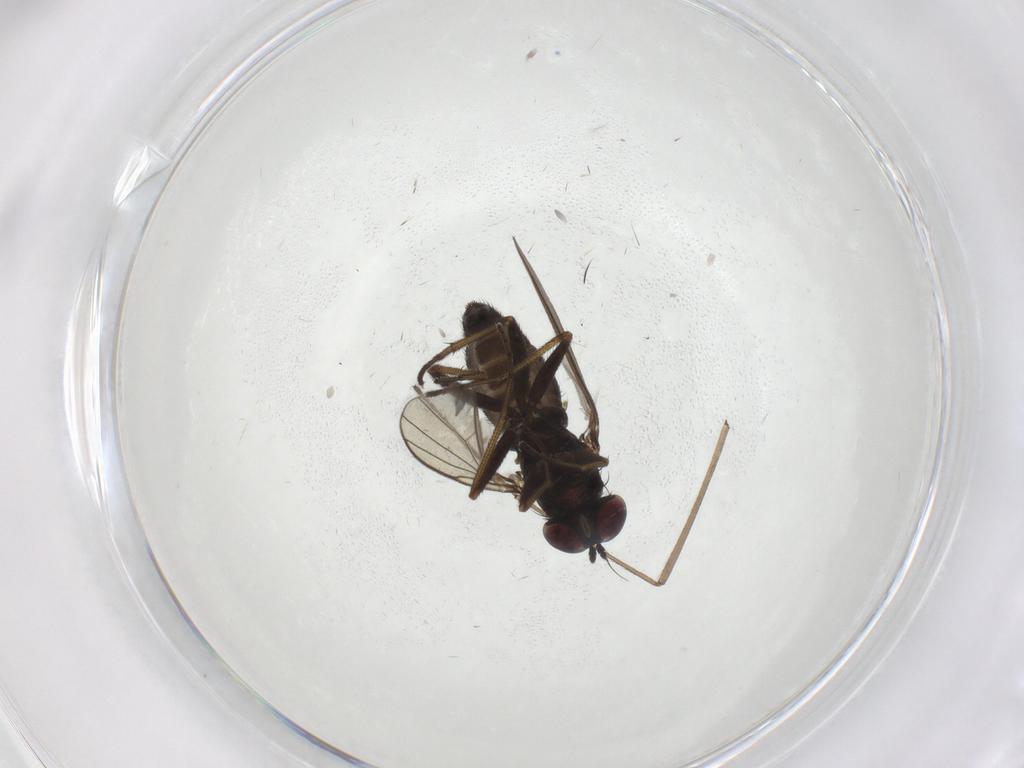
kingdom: Animalia
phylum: Arthropoda
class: Insecta
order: Diptera
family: Dolichopodidae
